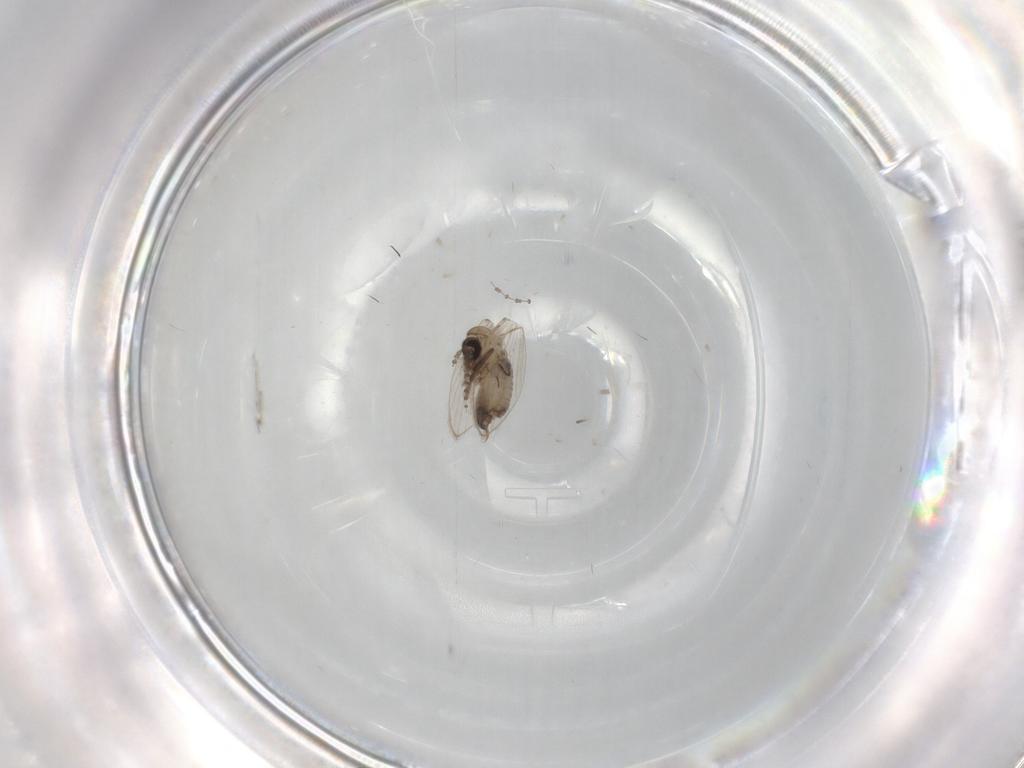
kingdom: Animalia
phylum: Arthropoda
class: Insecta
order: Diptera
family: Psychodidae
